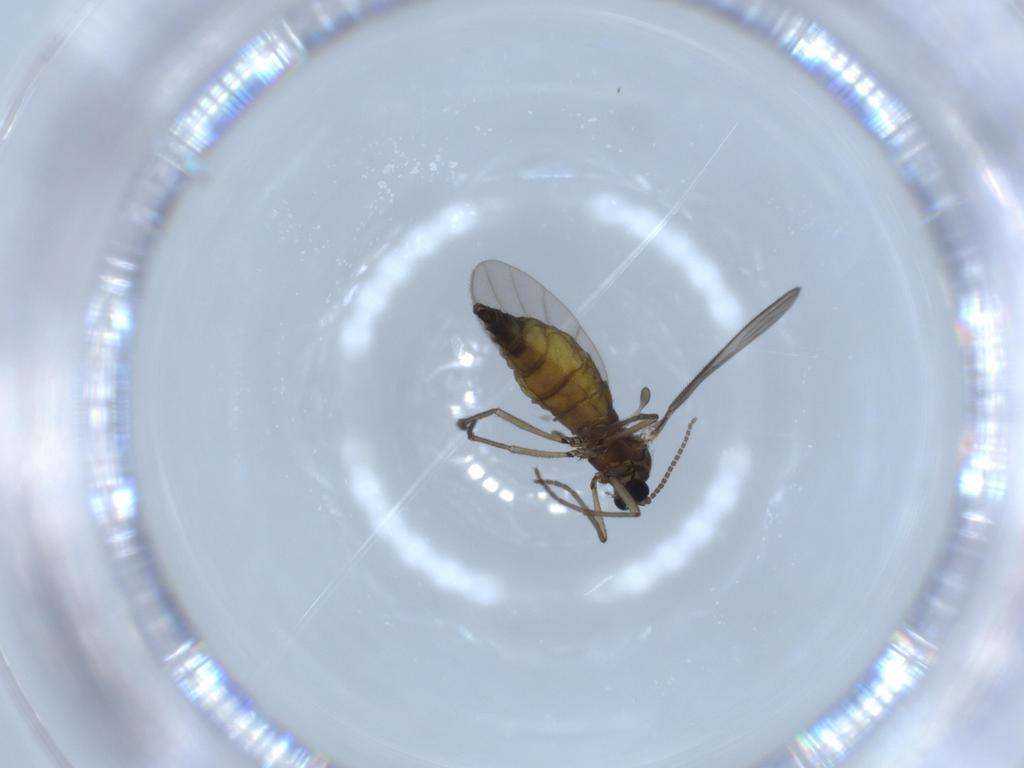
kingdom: Animalia
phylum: Arthropoda
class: Insecta
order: Diptera
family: Sciaridae
